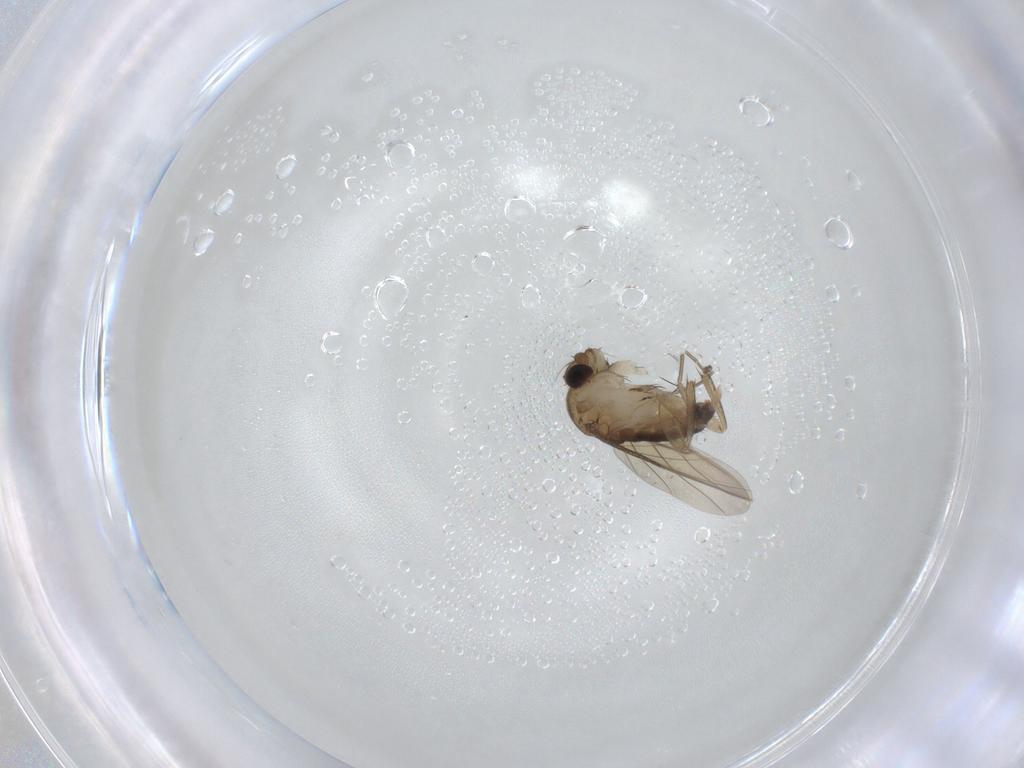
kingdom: Animalia
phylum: Arthropoda
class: Insecta
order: Diptera
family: Phoridae
